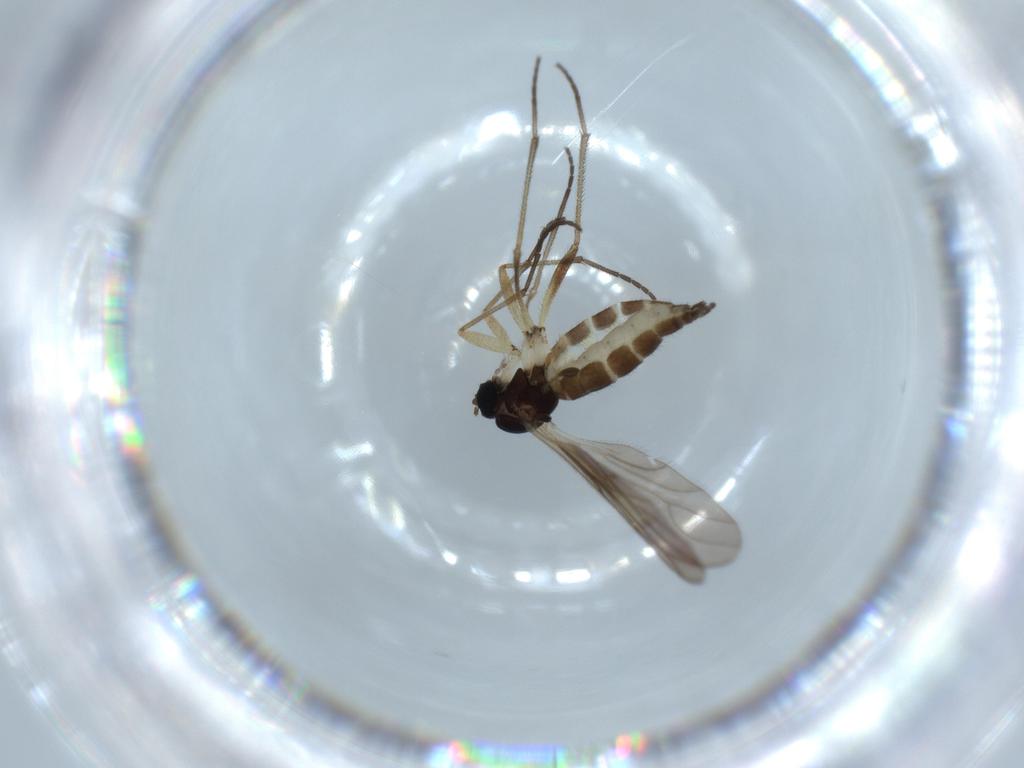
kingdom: Animalia
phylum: Arthropoda
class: Insecta
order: Diptera
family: Sciaridae
